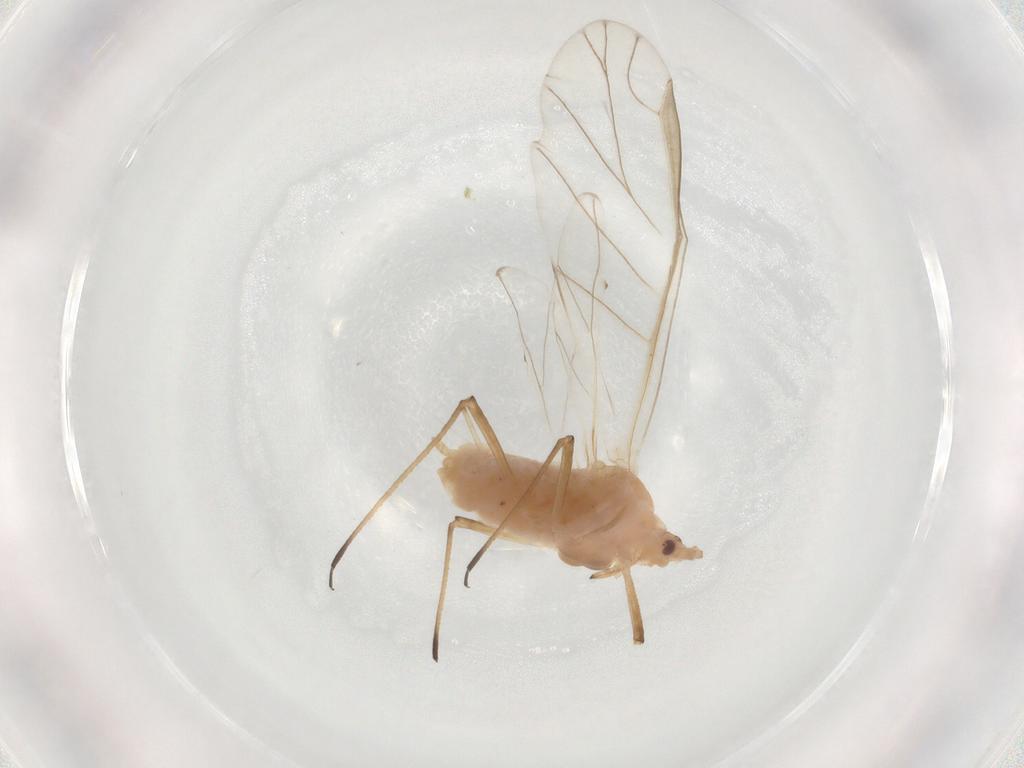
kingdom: Animalia
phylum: Arthropoda
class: Insecta
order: Hemiptera
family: Aphididae
